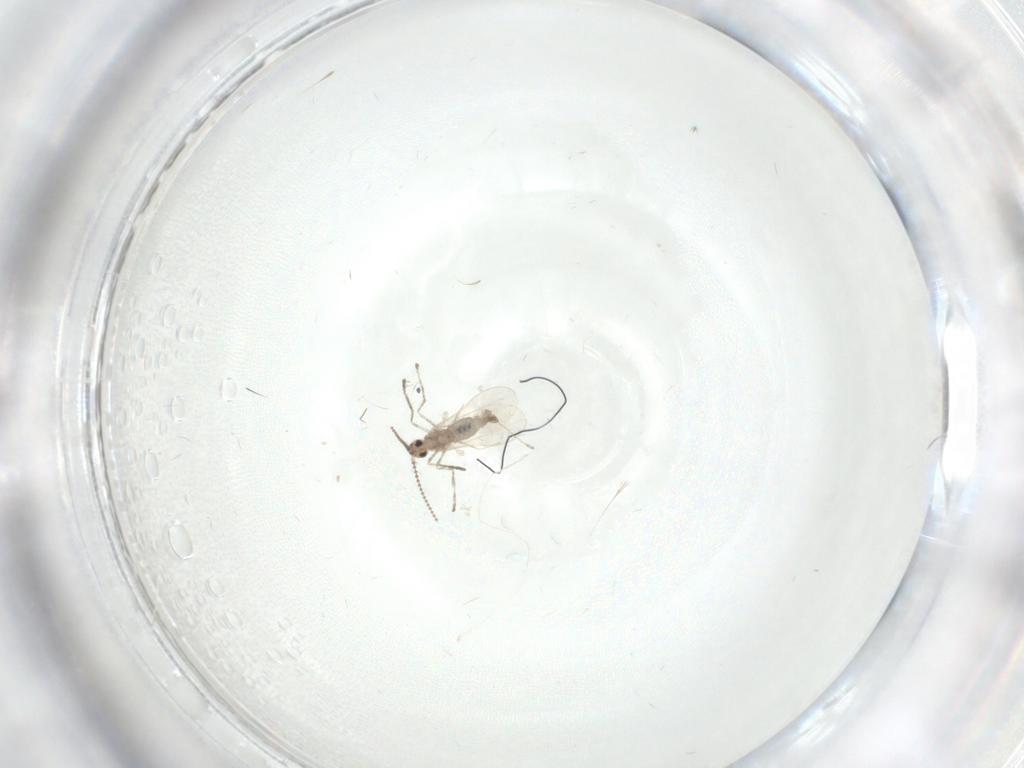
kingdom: Animalia
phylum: Arthropoda
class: Insecta
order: Diptera
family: Cecidomyiidae
